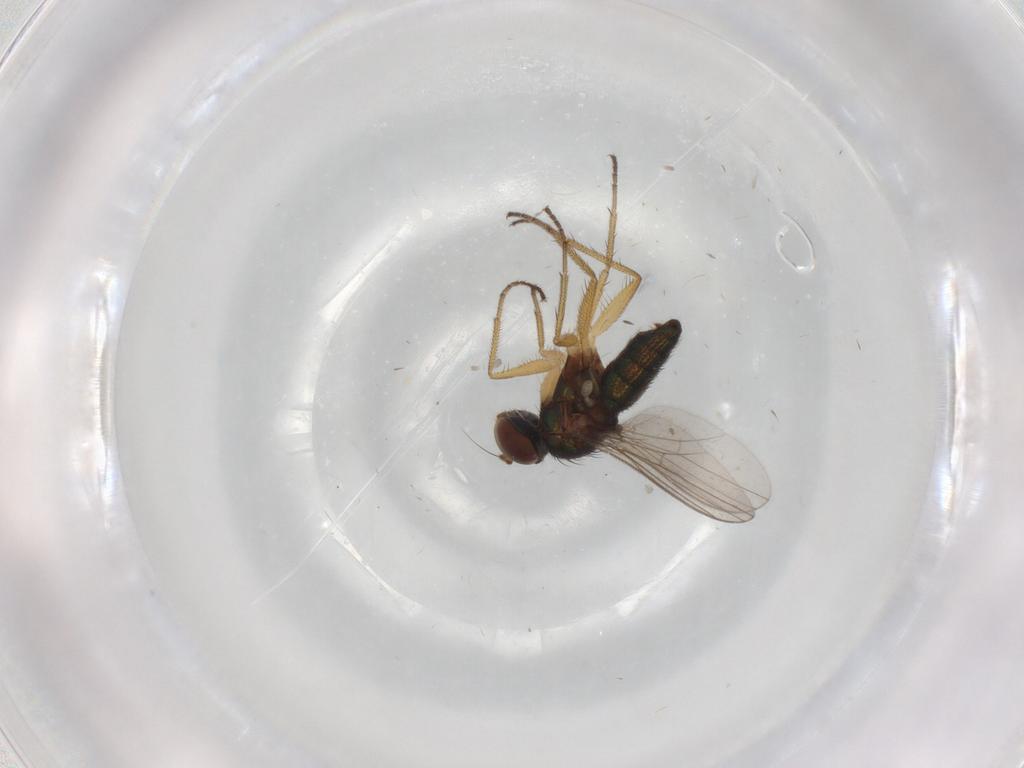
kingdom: Animalia
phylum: Arthropoda
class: Insecta
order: Diptera
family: Dolichopodidae
